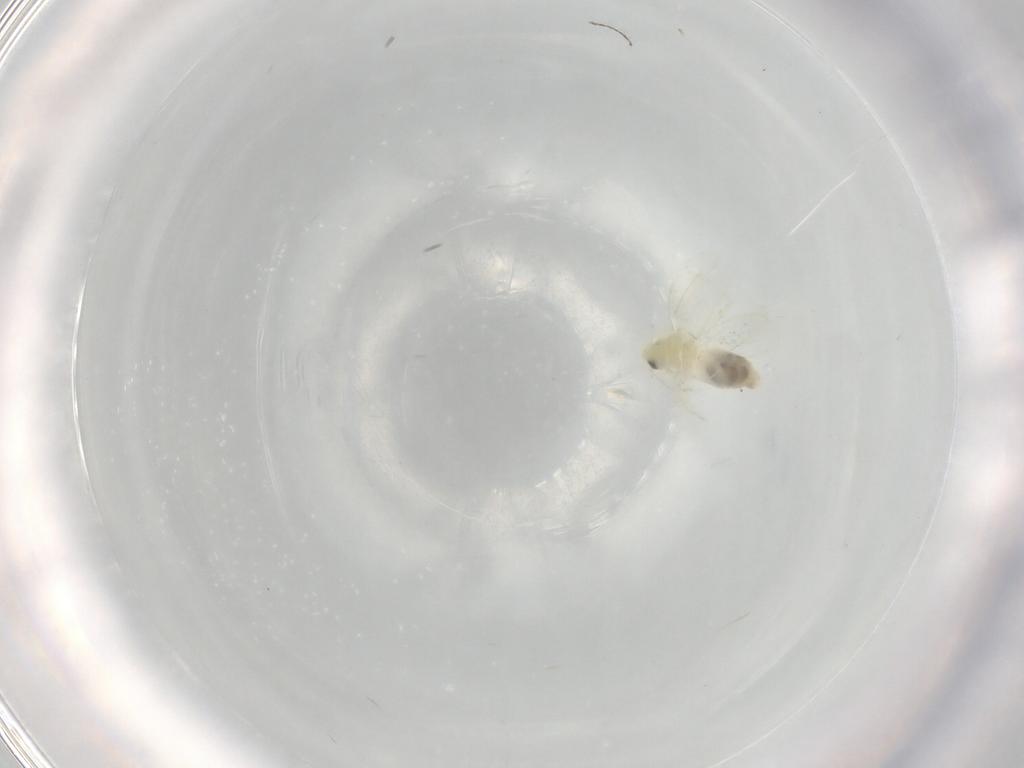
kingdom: Animalia
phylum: Arthropoda
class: Insecta
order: Hemiptera
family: Aleyrodidae
